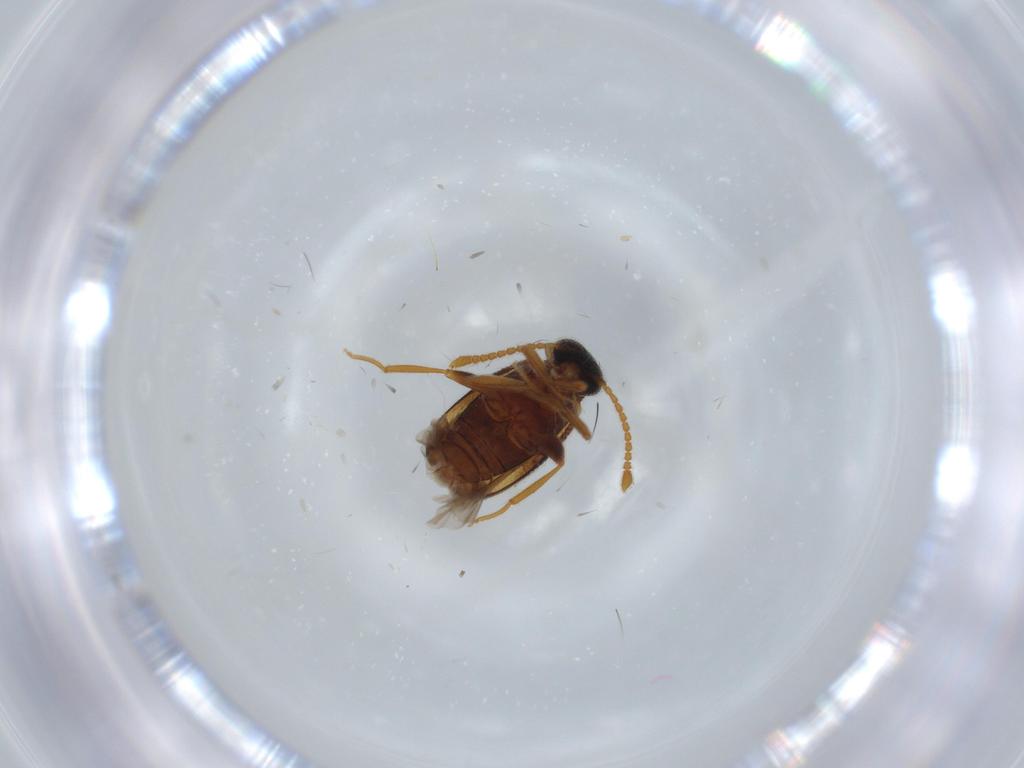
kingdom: Animalia
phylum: Arthropoda
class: Insecta
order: Coleoptera
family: Aderidae
